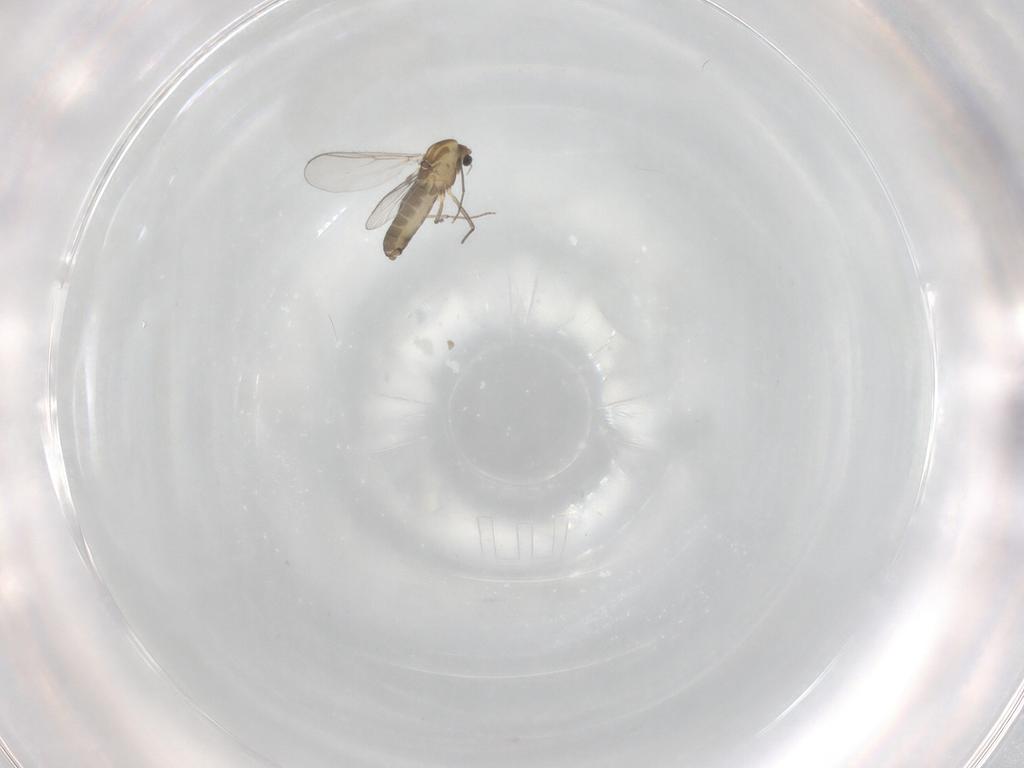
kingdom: Animalia
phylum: Arthropoda
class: Insecta
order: Diptera
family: Chironomidae
